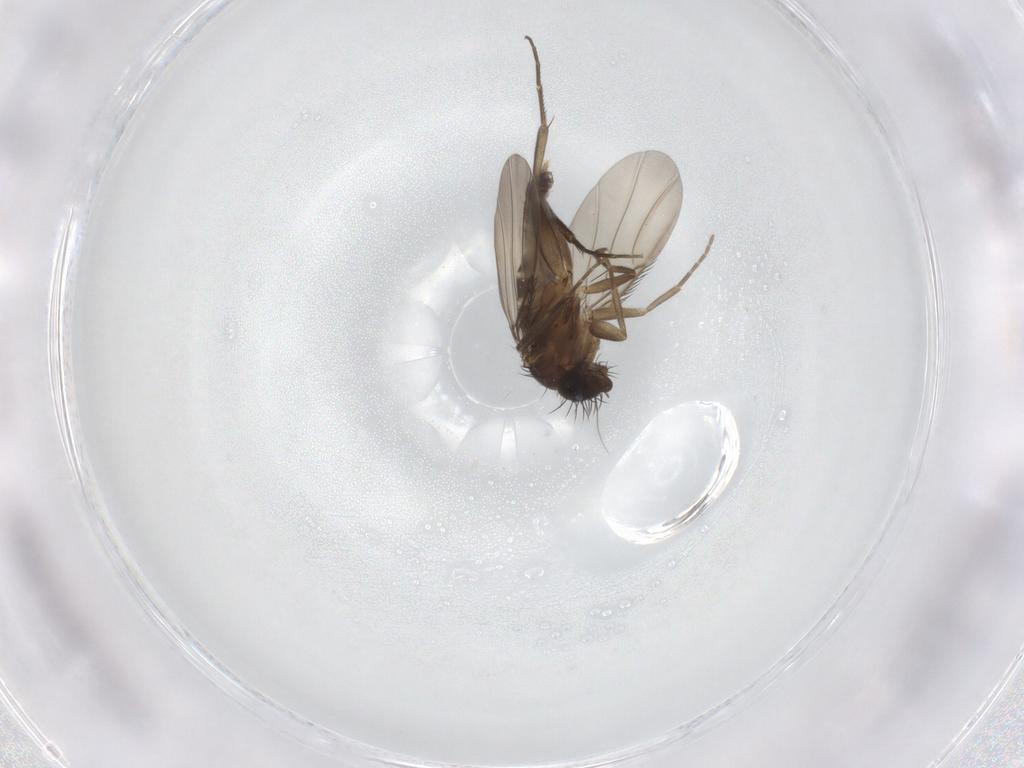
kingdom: Animalia
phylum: Arthropoda
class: Insecta
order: Diptera
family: Phoridae
